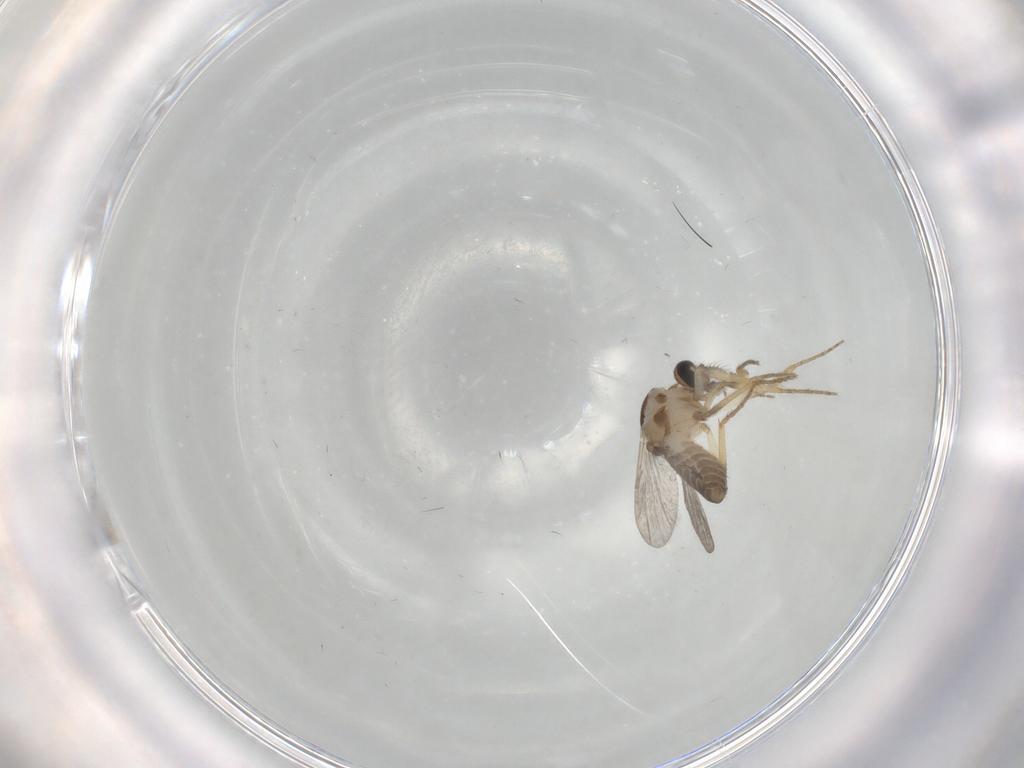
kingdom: Animalia
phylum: Arthropoda
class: Insecta
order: Diptera
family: Ceratopogonidae
